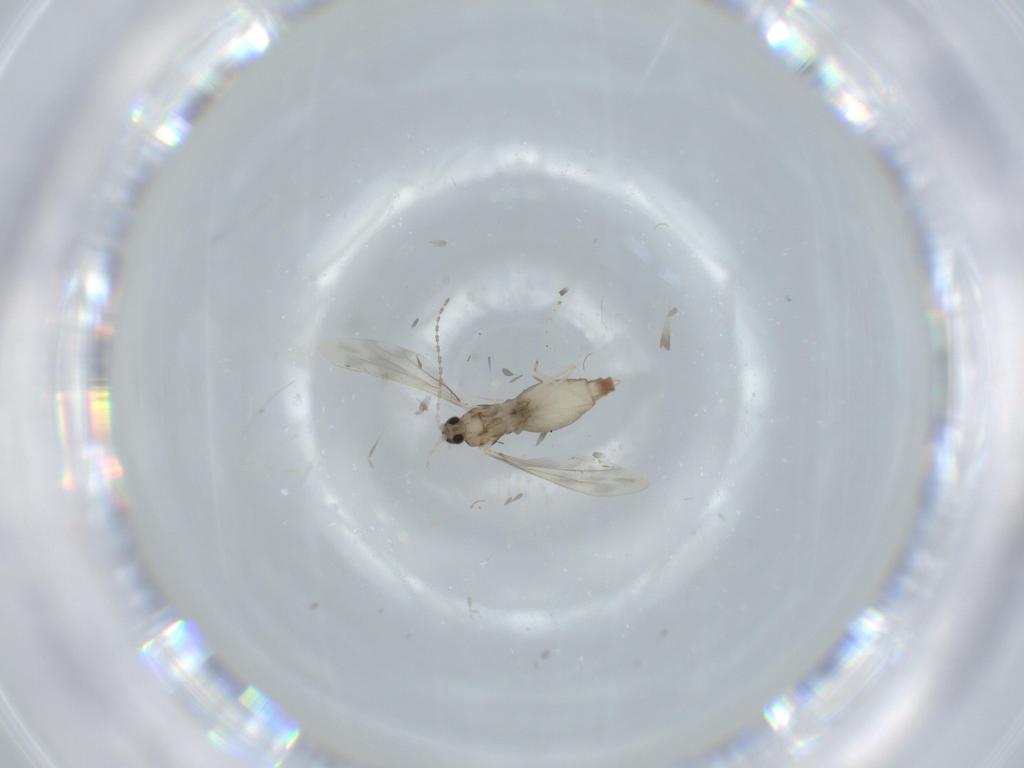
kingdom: Animalia
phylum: Arthropoda
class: Insecta
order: Diptera
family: Drosophilidae
